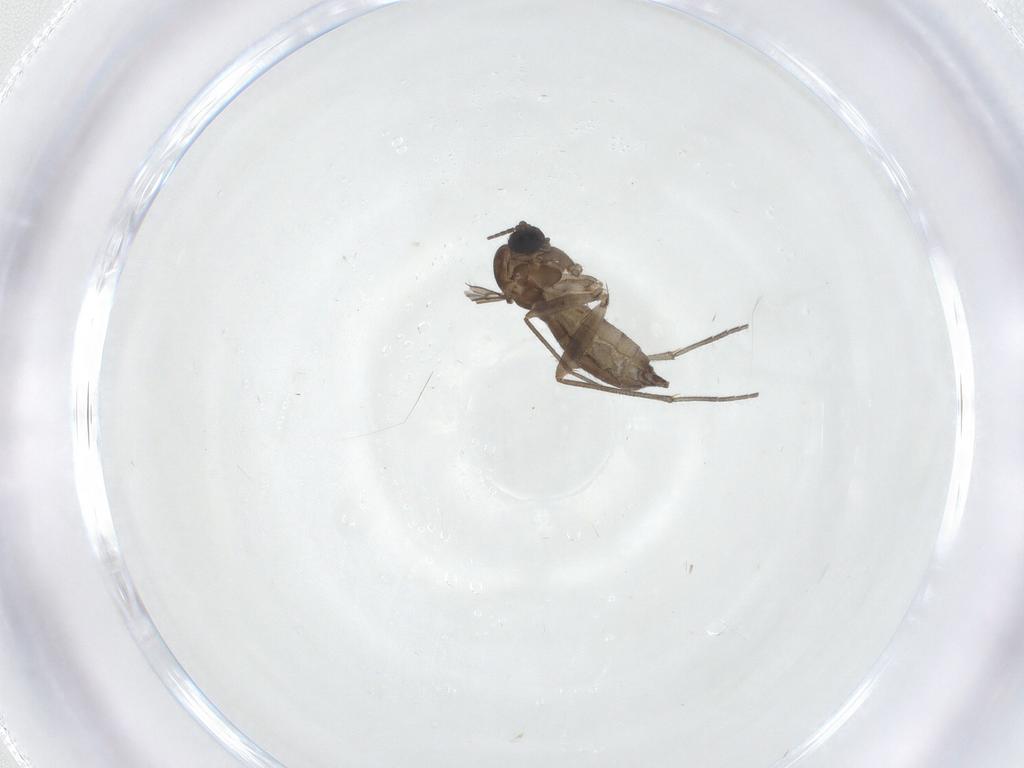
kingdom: Animalia
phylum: Arthropoda
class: Insecta
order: Diptera
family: Sciaridae
